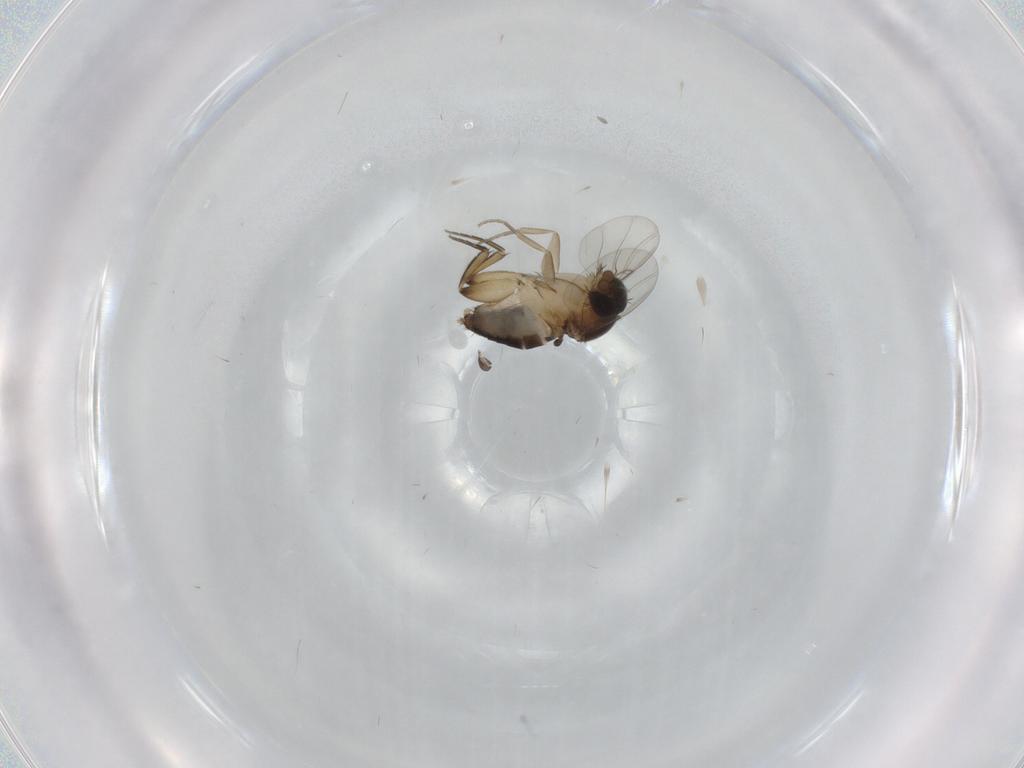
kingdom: Animalia
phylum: Arthropoda
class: Insecta
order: Diptera
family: Phoridae
